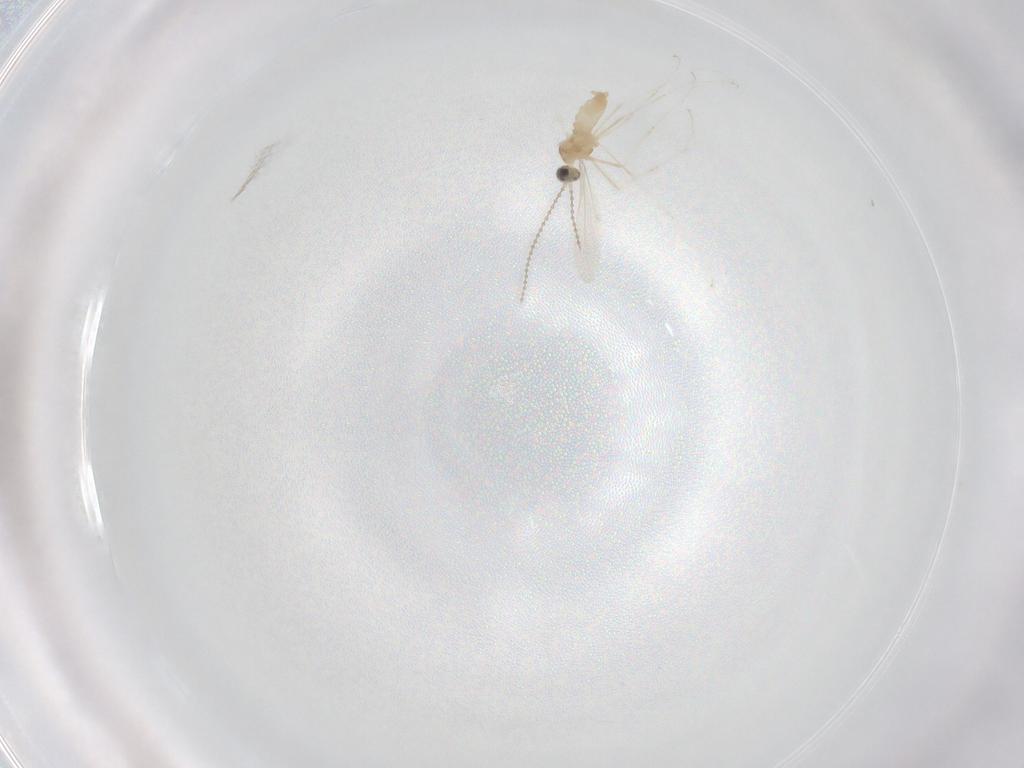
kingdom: Animalia
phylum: Arthropoda
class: Insecta
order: Diptera
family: Cecidomyiidae
